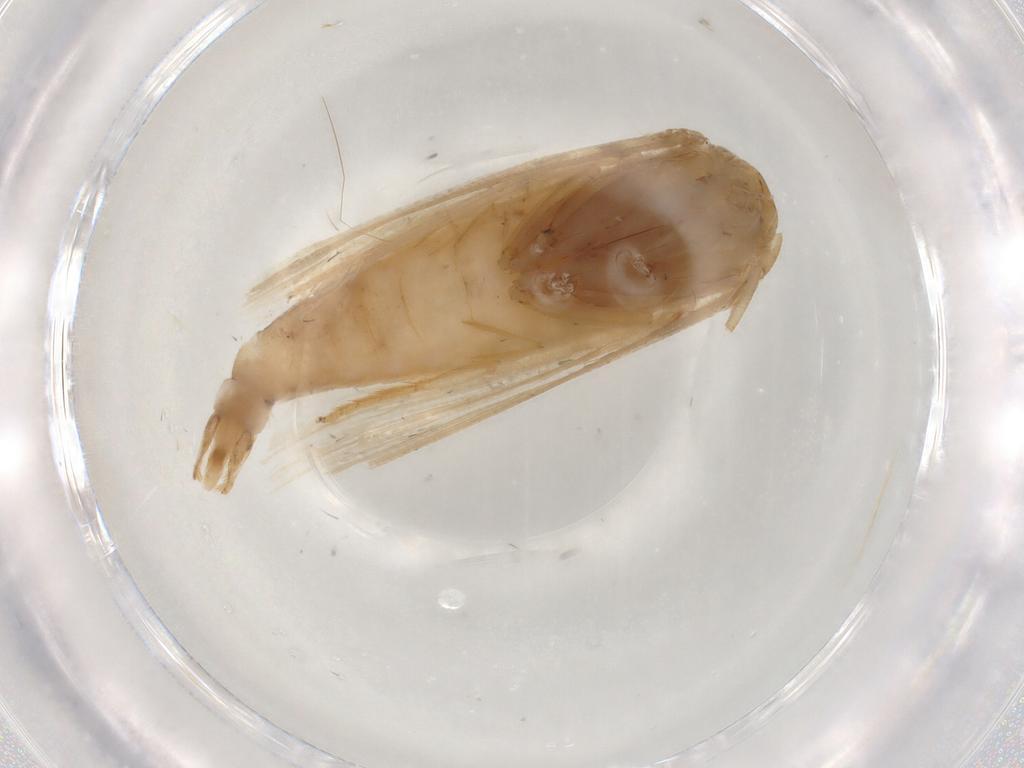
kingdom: Animalia
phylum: Arthropoda
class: Insecta
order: Lepidoptera
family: Noctuidae
